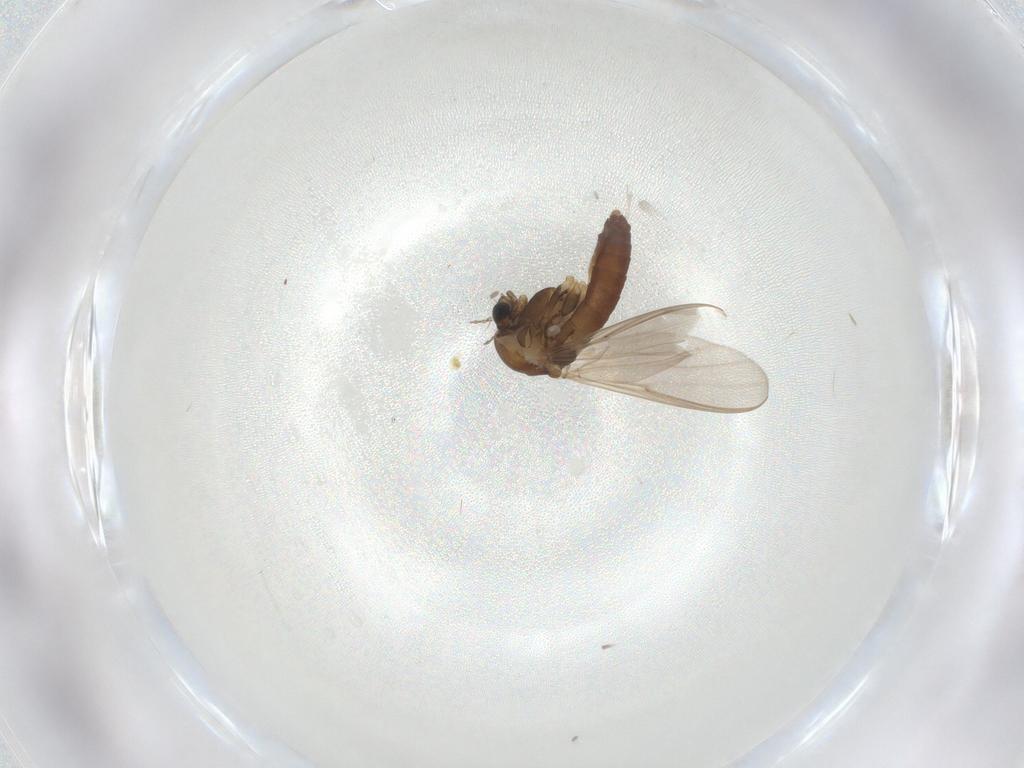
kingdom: Animalia
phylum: Arthropoda
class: Insecta
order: Diptera
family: Chironomidae
